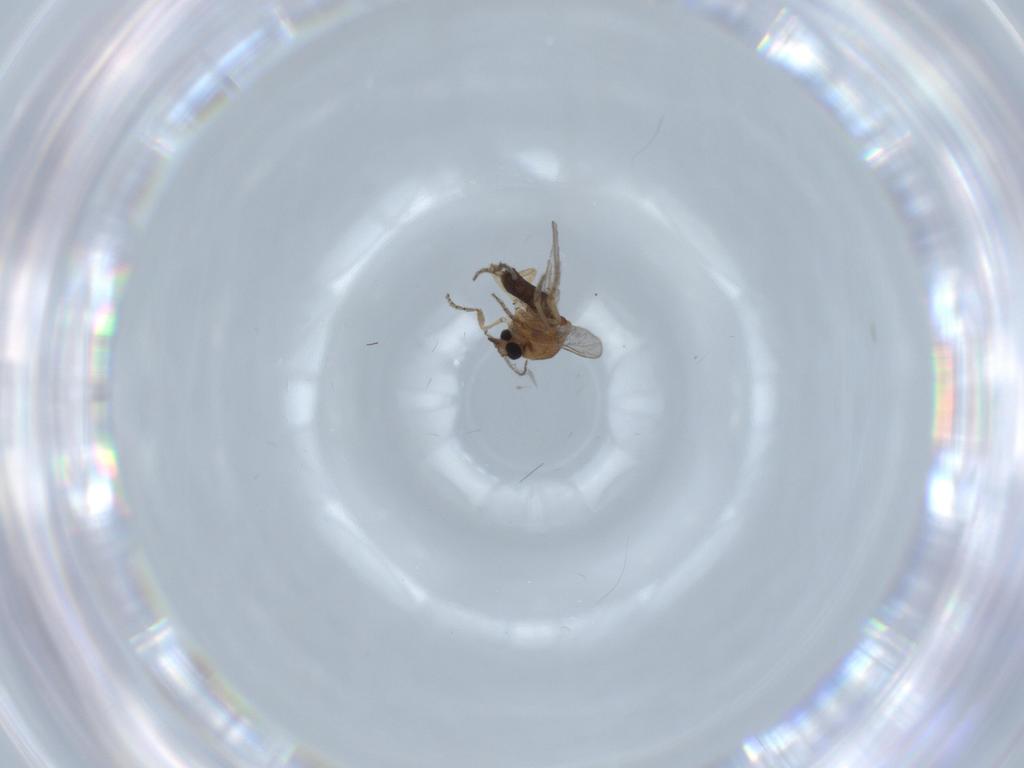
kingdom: Animalia
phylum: Arthropoda
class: Insecta
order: Diptera
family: Ceratopogonidae
